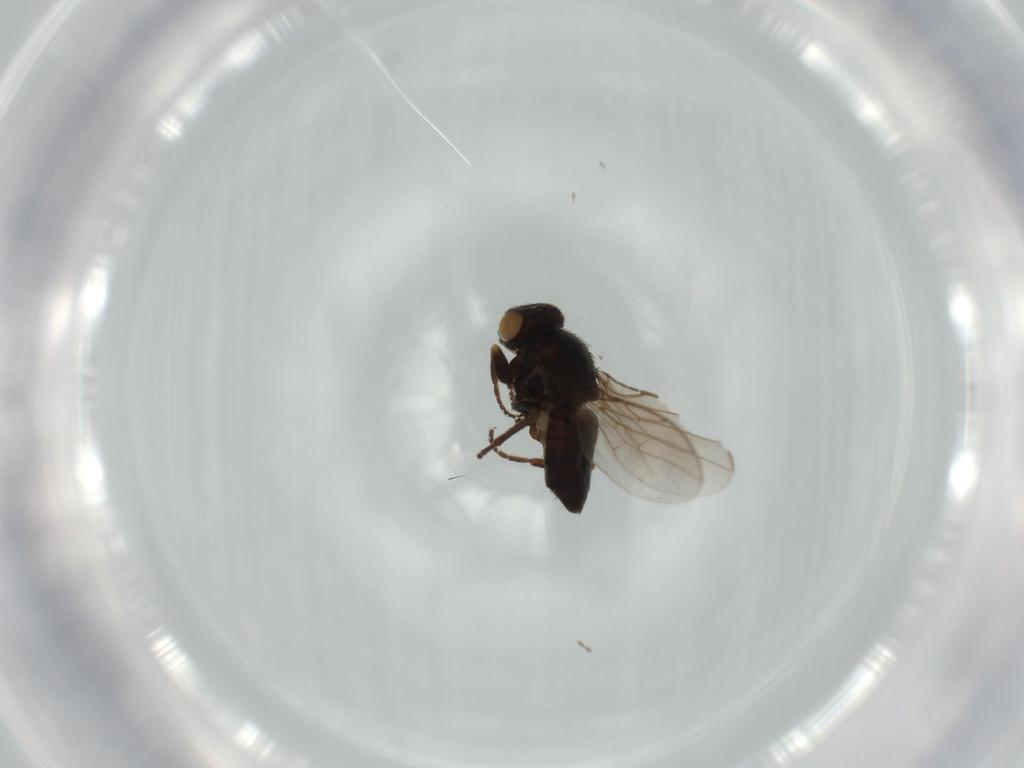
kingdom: Animalia
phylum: Arthropoda
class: Insecta
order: Diptera
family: Chloropidae
